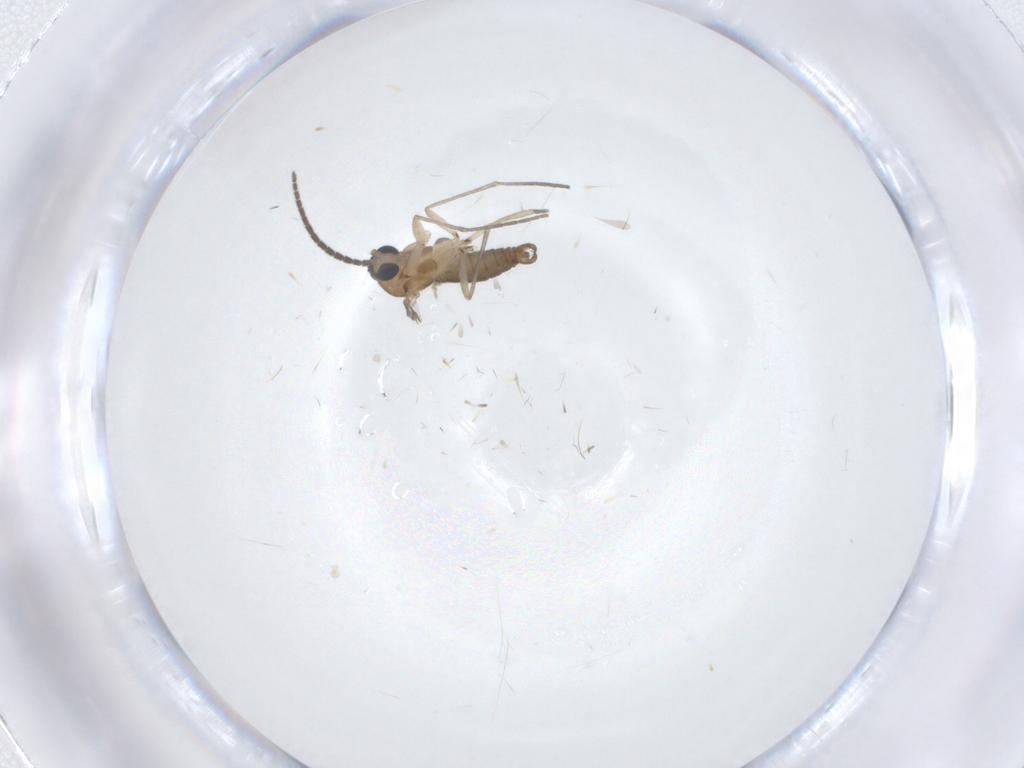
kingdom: Animalia
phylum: Arthropoda
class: Insecta
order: Diptera
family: Sciaridae
